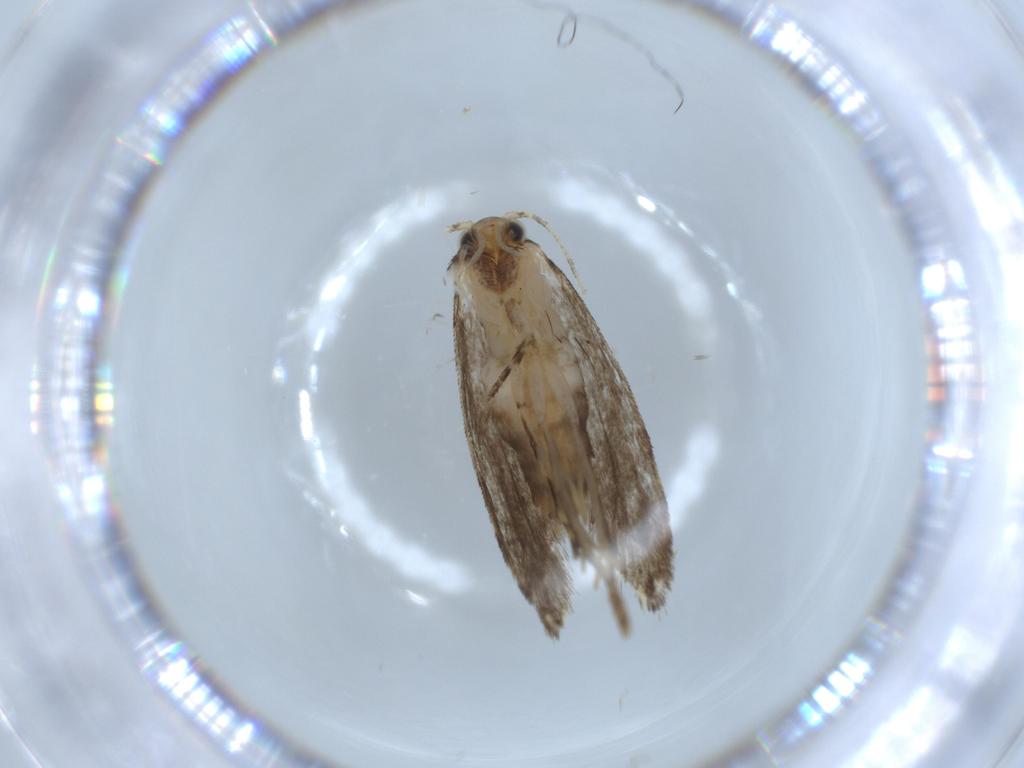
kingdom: Animalia
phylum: Arthropoda
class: Insecta
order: Lepidoptera
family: Tineidae
